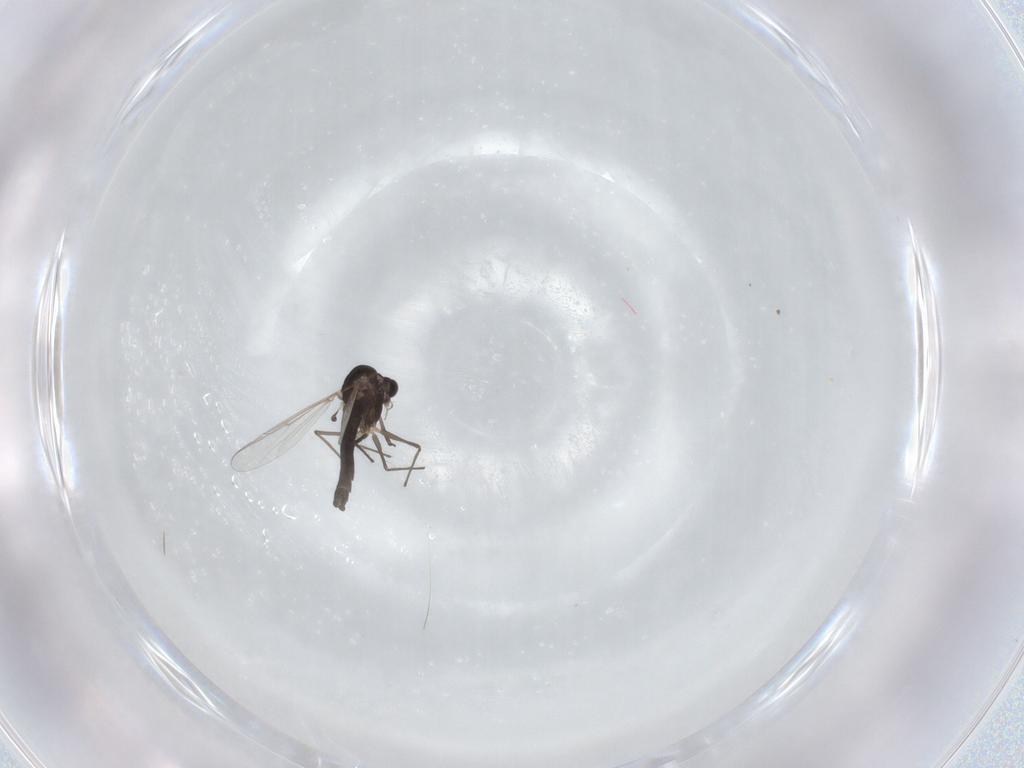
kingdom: Animalia
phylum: Arthropoda
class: Insecta
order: Diptera
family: Chironomidae
